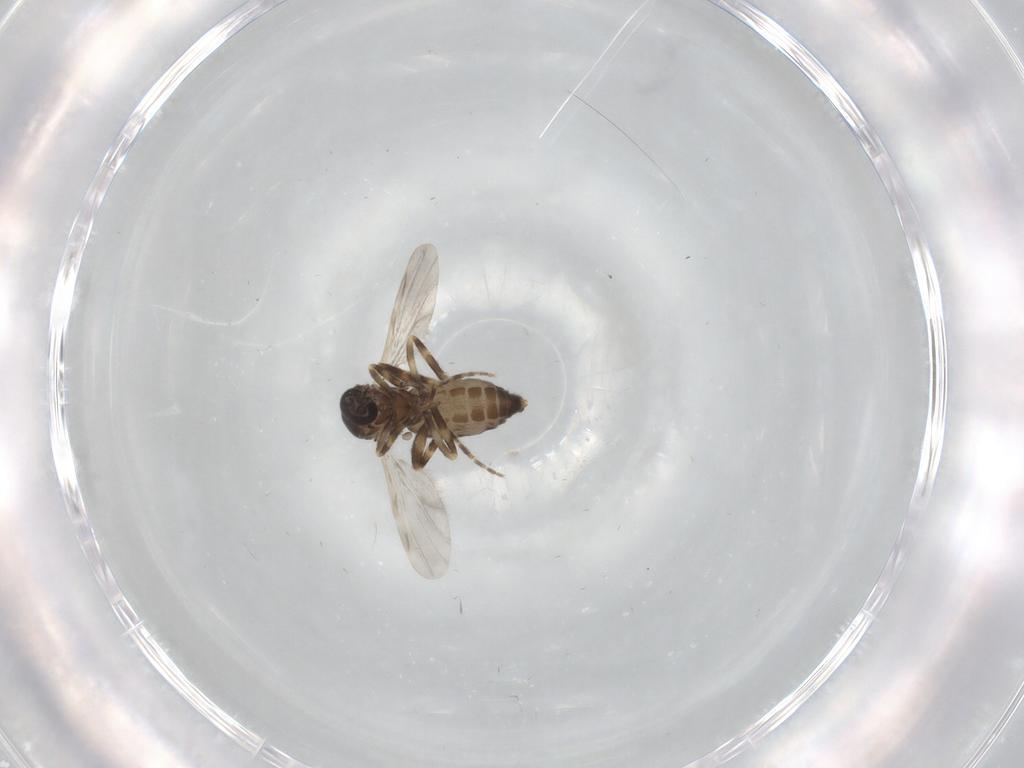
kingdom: Animalia
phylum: Arthropoda
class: Insecta
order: Diptera
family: Ceratopogonidae
